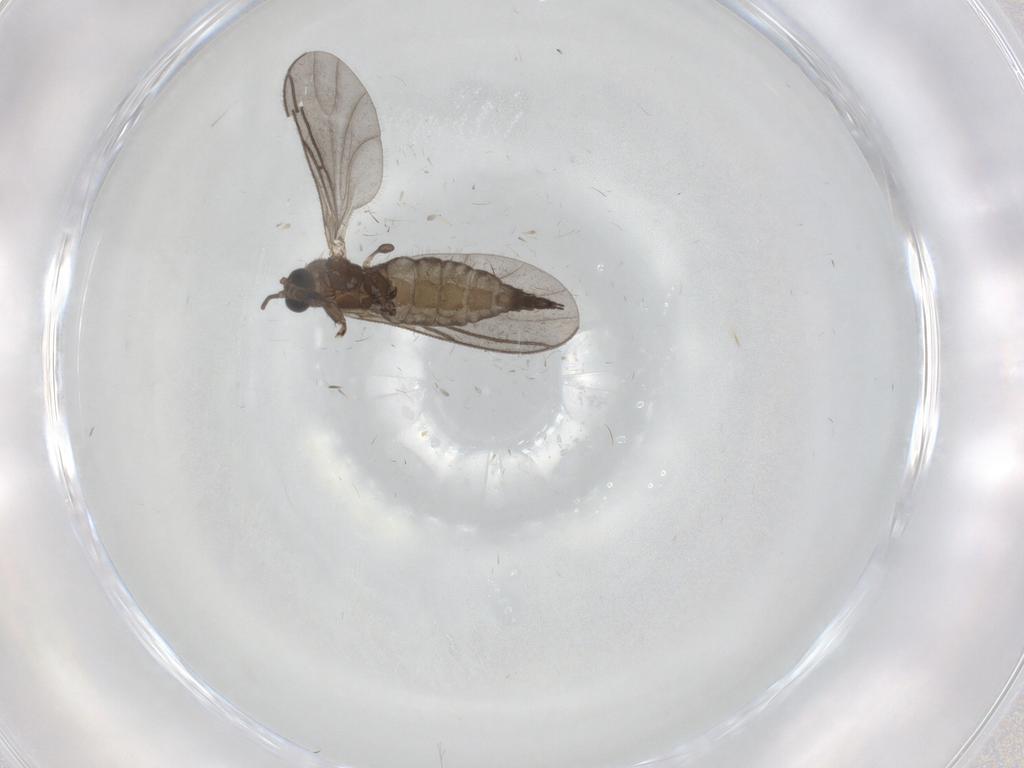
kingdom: Animalia
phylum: Arthropoda
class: Insecta
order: Diptera
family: Sciaridae
